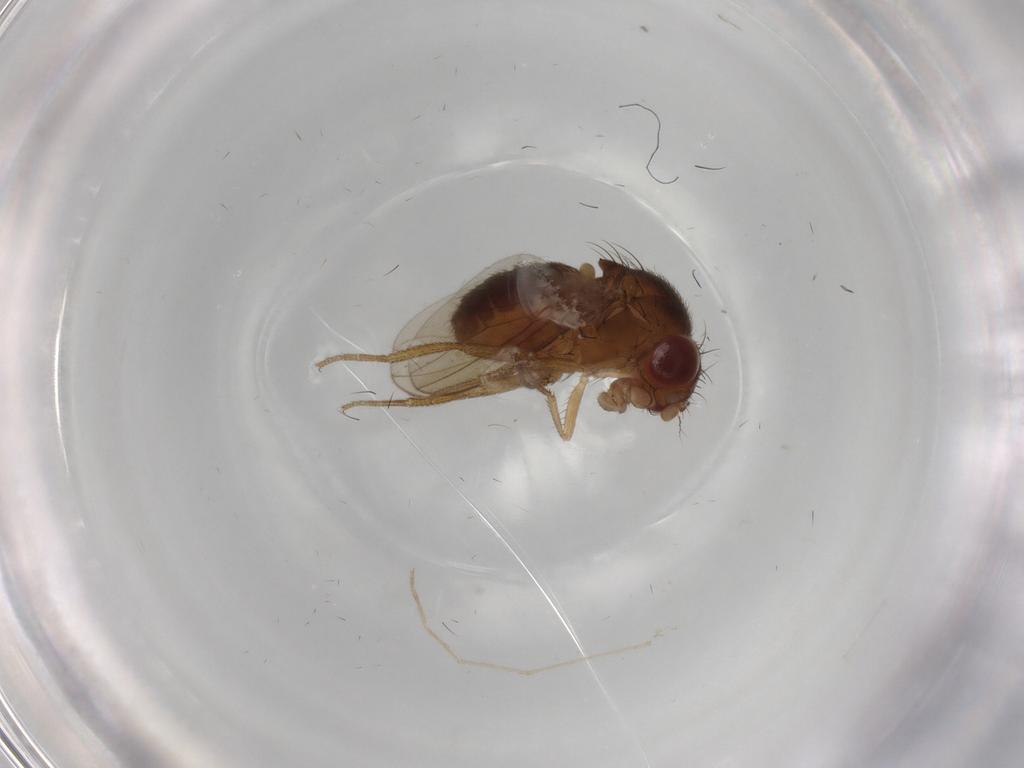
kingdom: Animalia
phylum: Arthropoda
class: Insecta
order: Diptera
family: Drosophilidae
